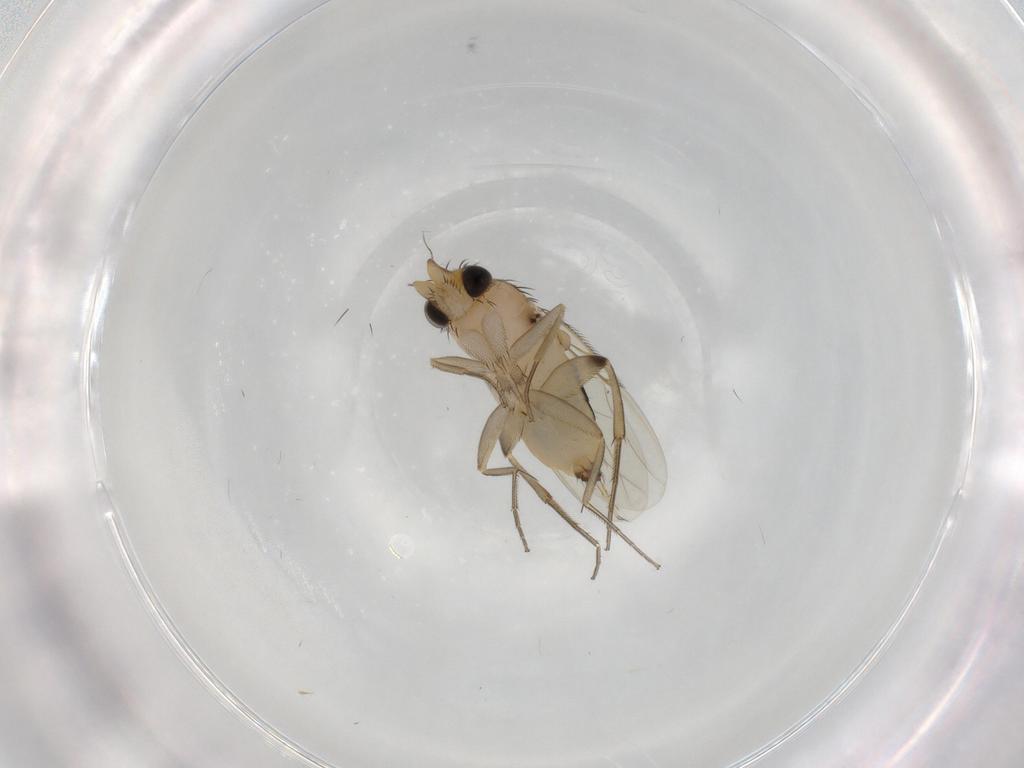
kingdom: Animalia
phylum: Arthropoda
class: Insecta
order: Diptera
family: Phoridae
